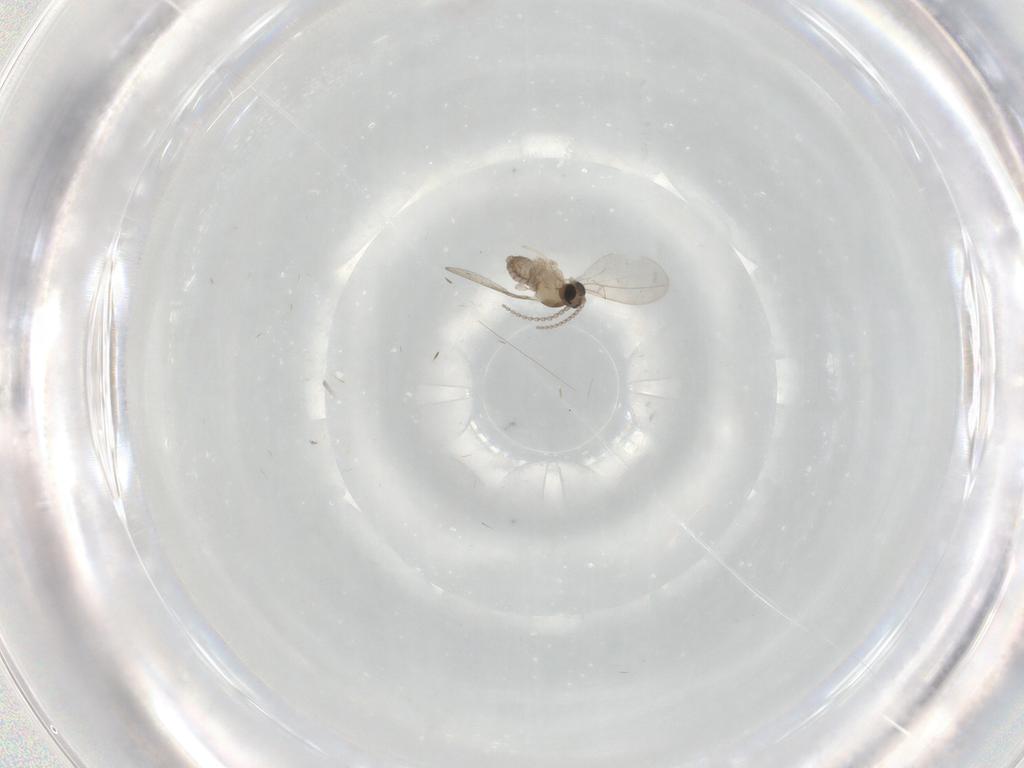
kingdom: Animalia
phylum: Arthropoda
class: Insecta
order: Diptera
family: Cecidomyiidae
